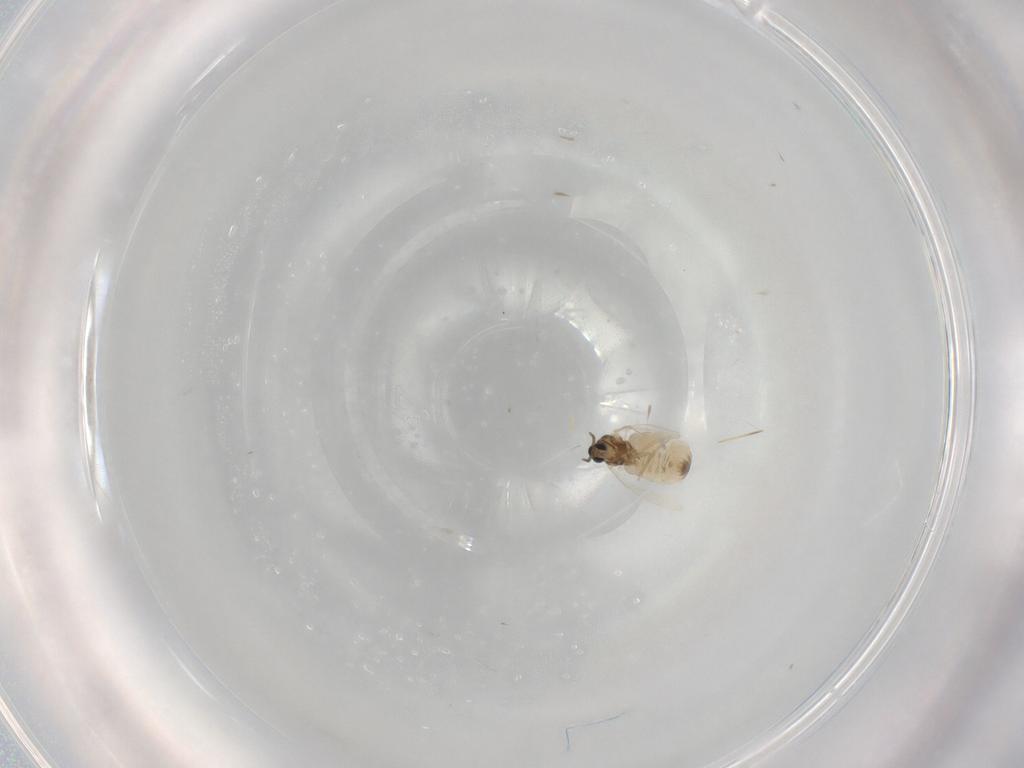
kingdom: Animalia
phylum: Arthropoda
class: Insecta
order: Diptera
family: Cecidomyiidae
